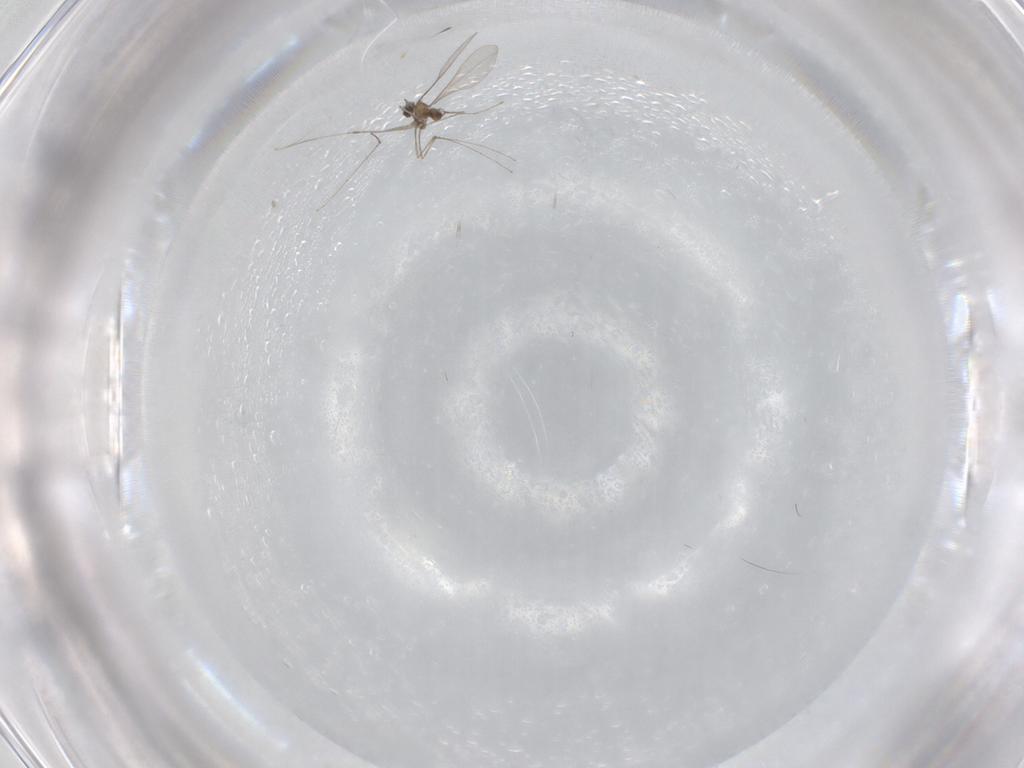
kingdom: Animalia
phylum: Arthropoda
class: Insecta
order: Diptera
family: Cecidomyiidae
